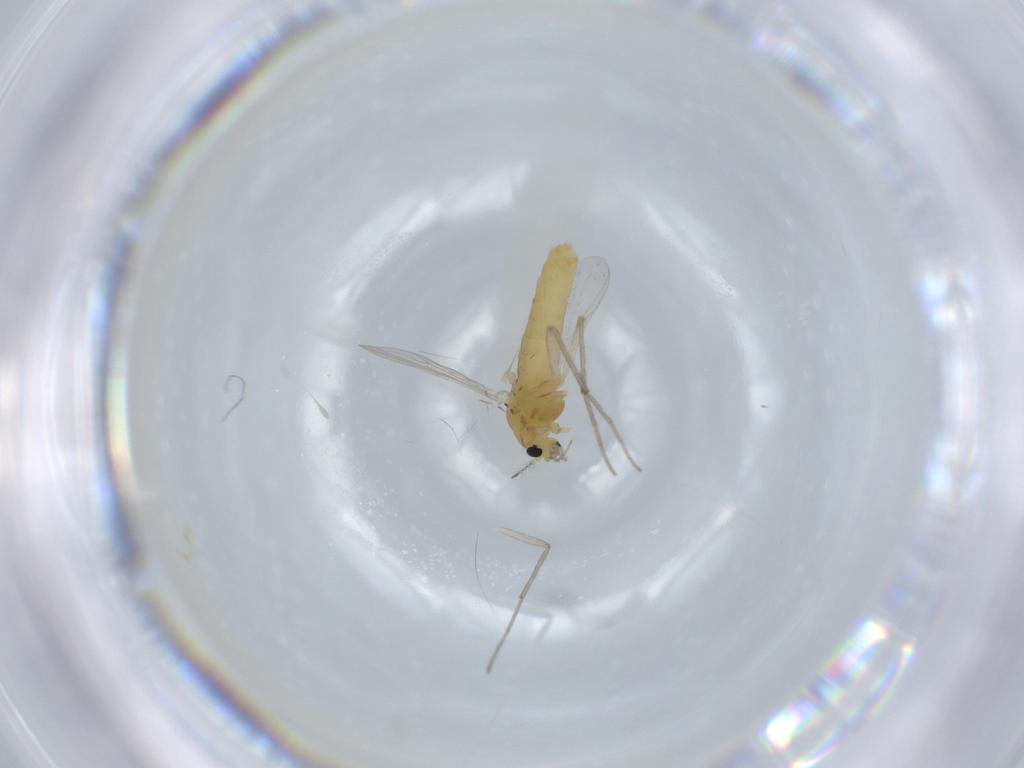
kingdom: Animalia
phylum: Arthropoda
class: Insecta
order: Diptera
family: Chironomidae
